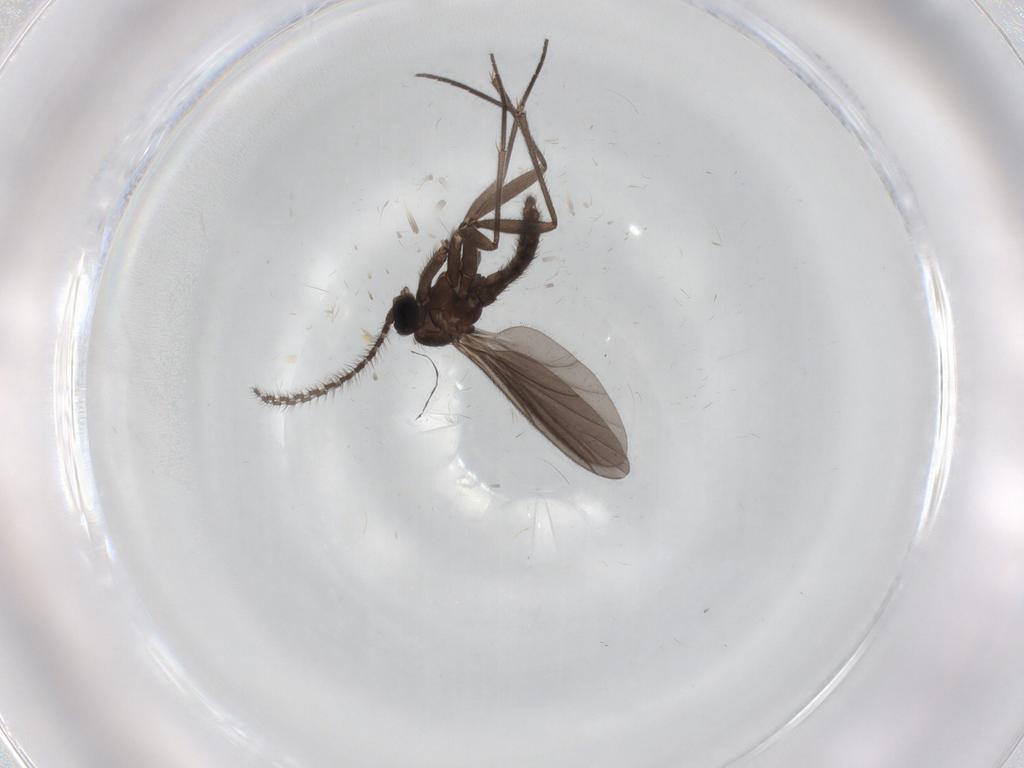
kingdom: Animalia
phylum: Arthropoda
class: Insecta
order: Diptera
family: Sciaridae
